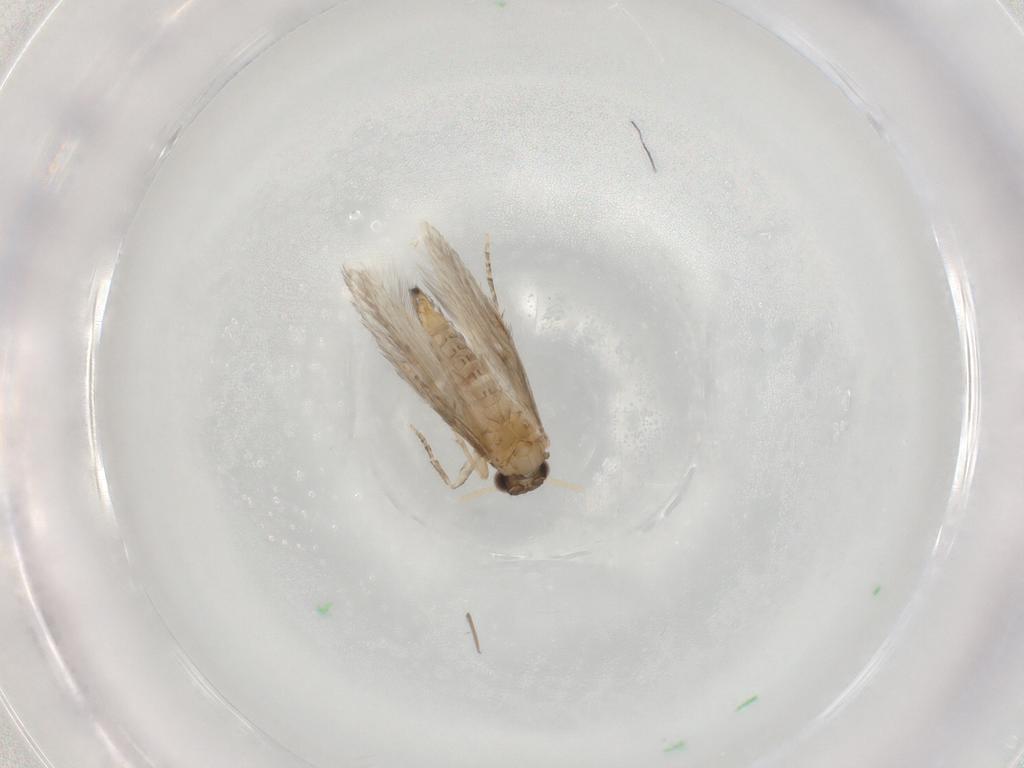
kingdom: Animalia
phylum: Arthropoda
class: Insecta
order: Trichoptera
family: Hydroptilidae
